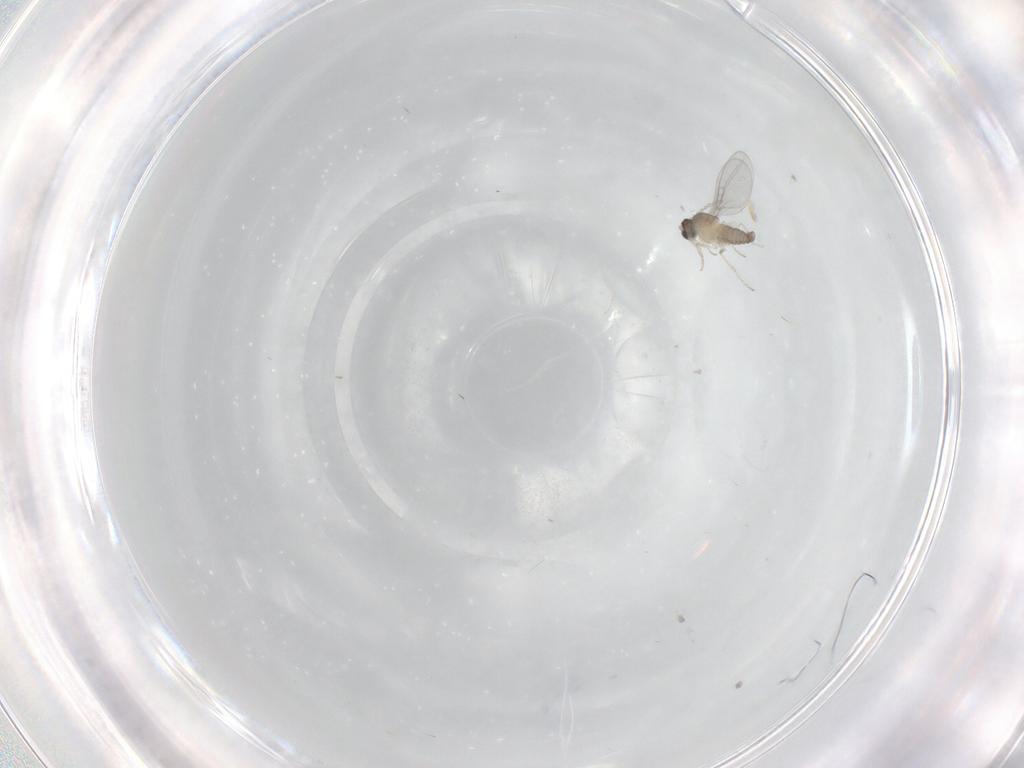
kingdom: Animalia
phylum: Arthropoda
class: Insecta
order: Diptera
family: Cecidomyiidae
